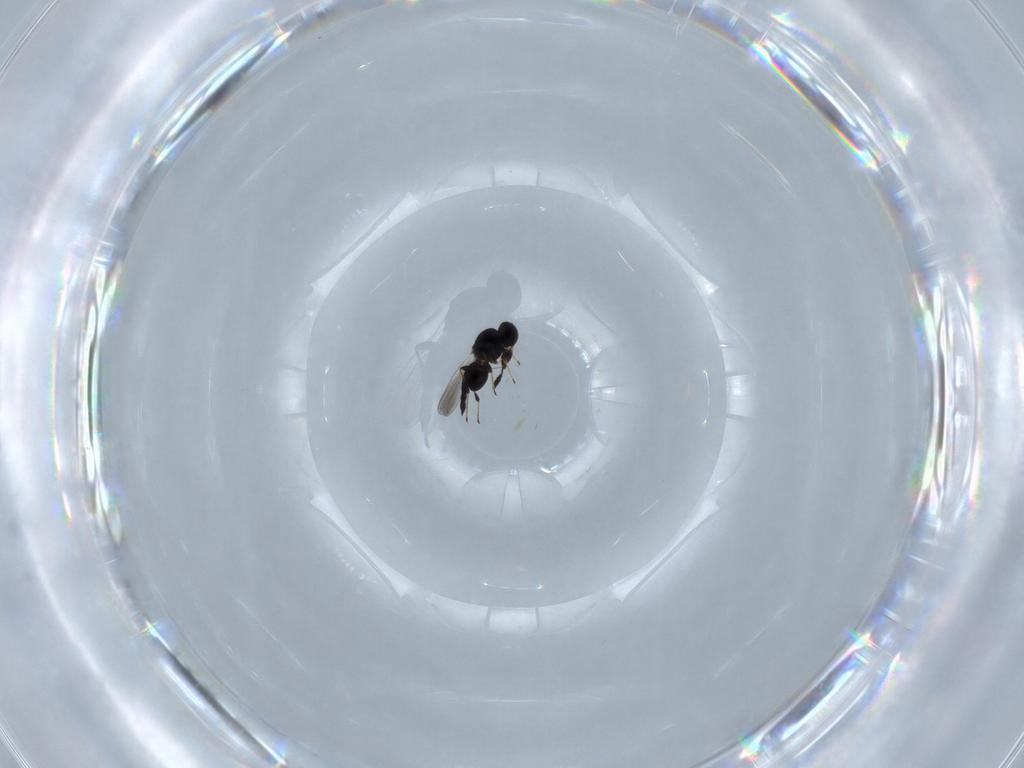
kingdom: Animalia
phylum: Arthropoda
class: Insecta
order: Hymenoptera
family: Platygastridae
